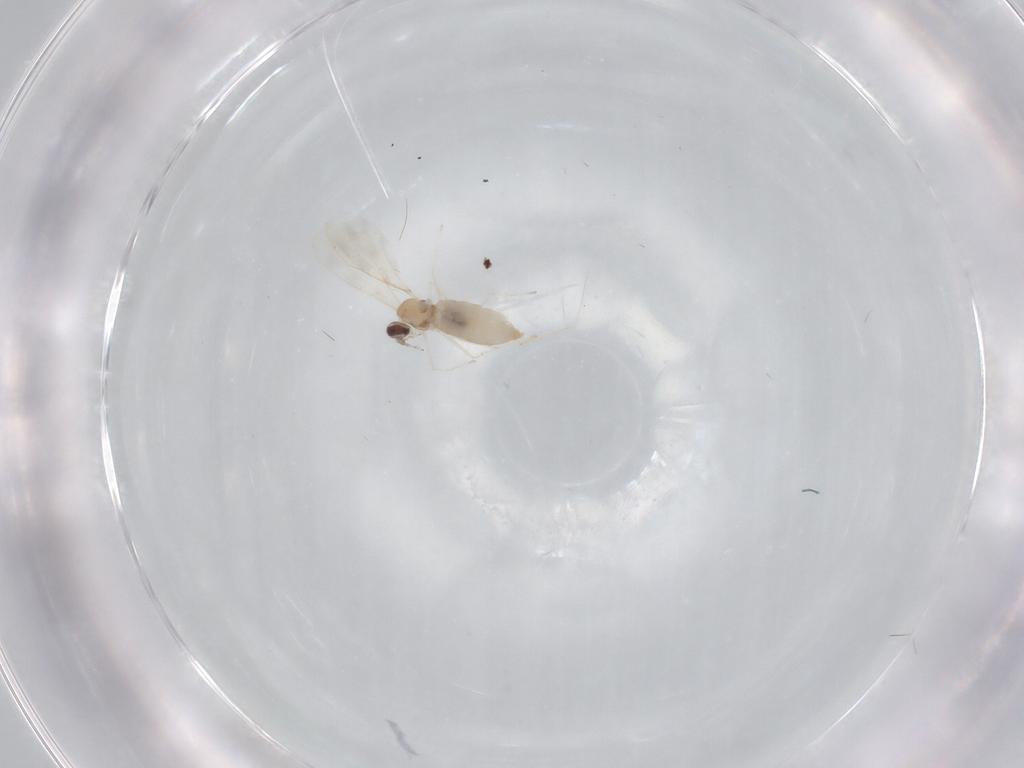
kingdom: Animalia
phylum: Arthropoda
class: Insecta
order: Diptera
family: Cecidomyiidae
